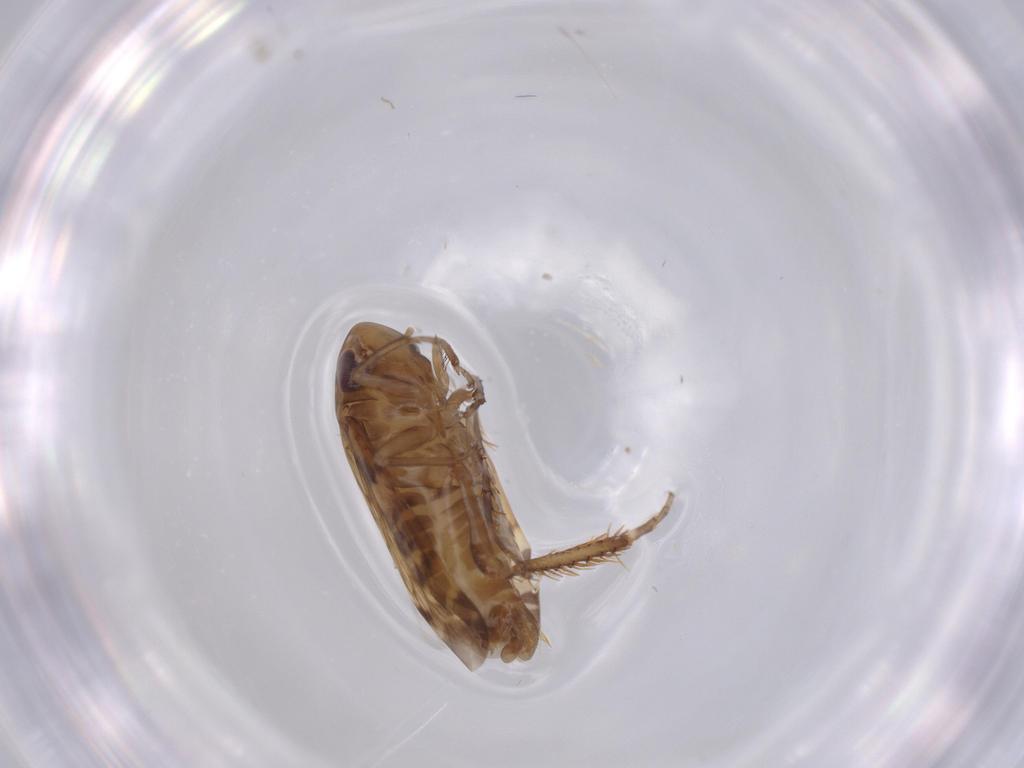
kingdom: Animalia
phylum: Arthropoda
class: Insecta
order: Hemiptera
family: Cicadellidae
